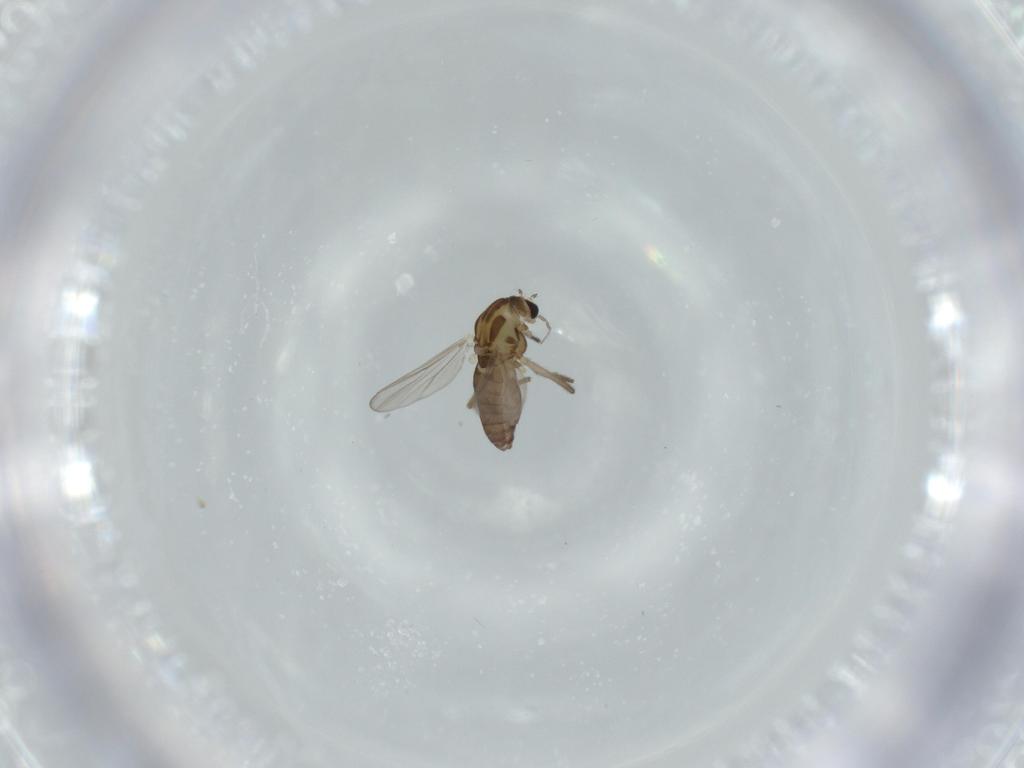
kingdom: Animalia
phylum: Arthropoda
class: Insecta
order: Diptera
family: Chironomidae
